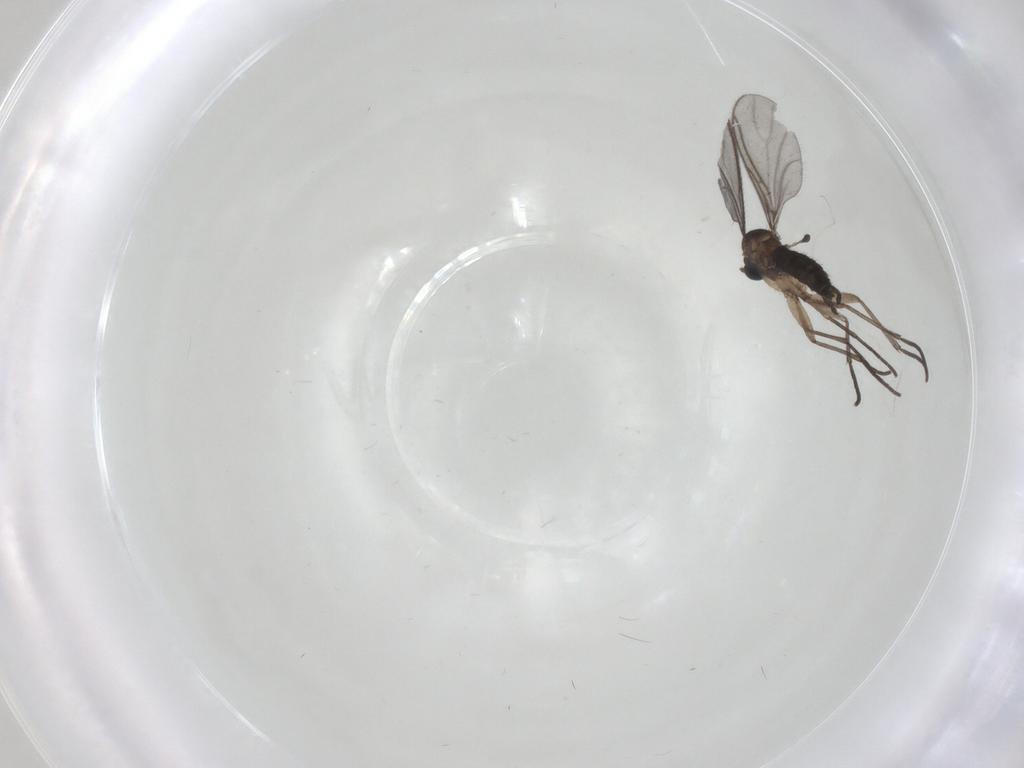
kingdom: Animalia
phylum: Arthropoda
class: Insecta
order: Diptera
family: Sciaridae
